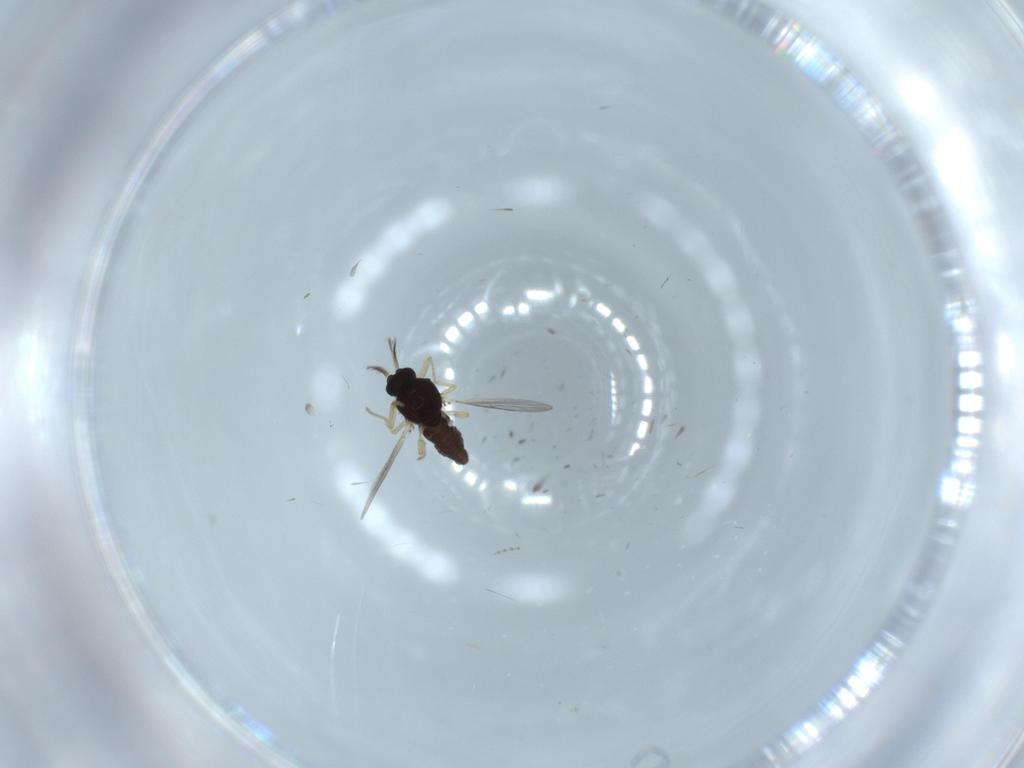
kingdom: Animalia
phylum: Arthropoda
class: Insecta
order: Diptera
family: Ceratopogonidae
